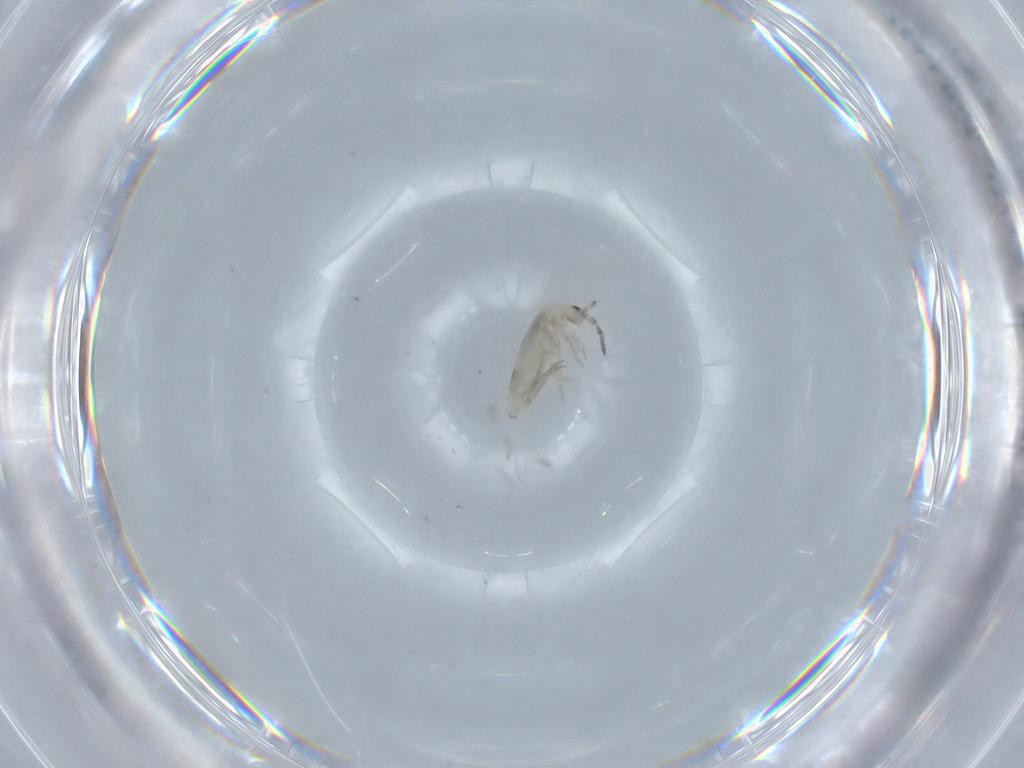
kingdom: Animalia
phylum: Arthropoda
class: Collembola
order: Entomobryomorpha
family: Entomobryidae
